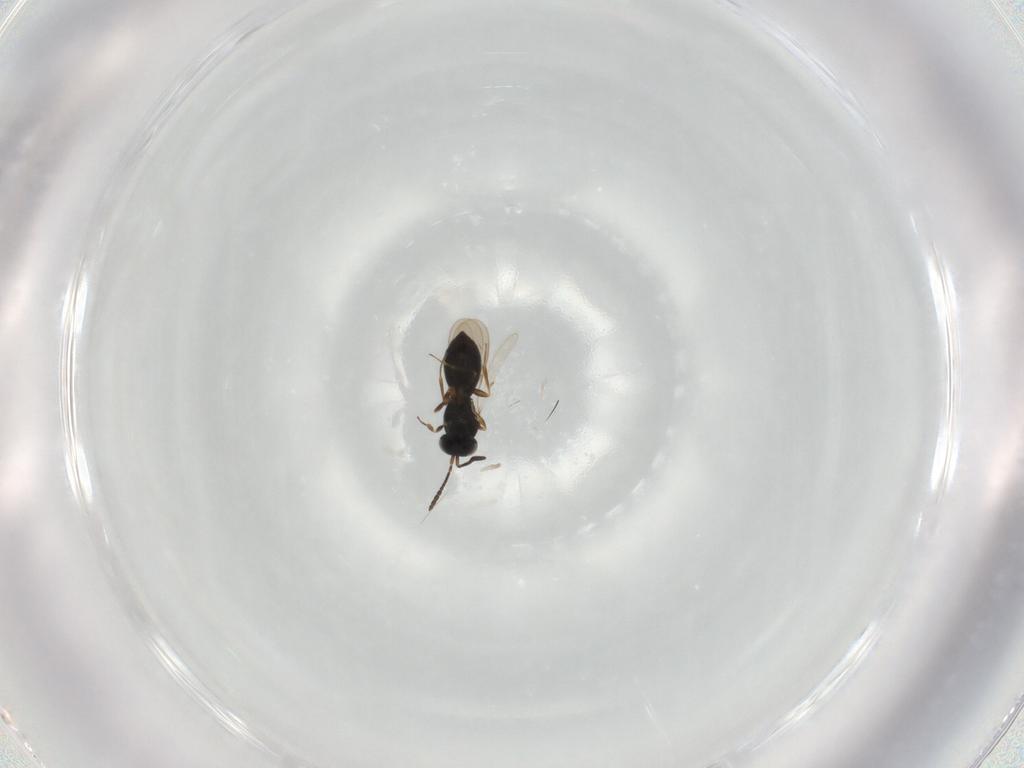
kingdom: Animalia
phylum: Arthropoda
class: Insecta
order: Hymenoptera
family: Scelionidae
